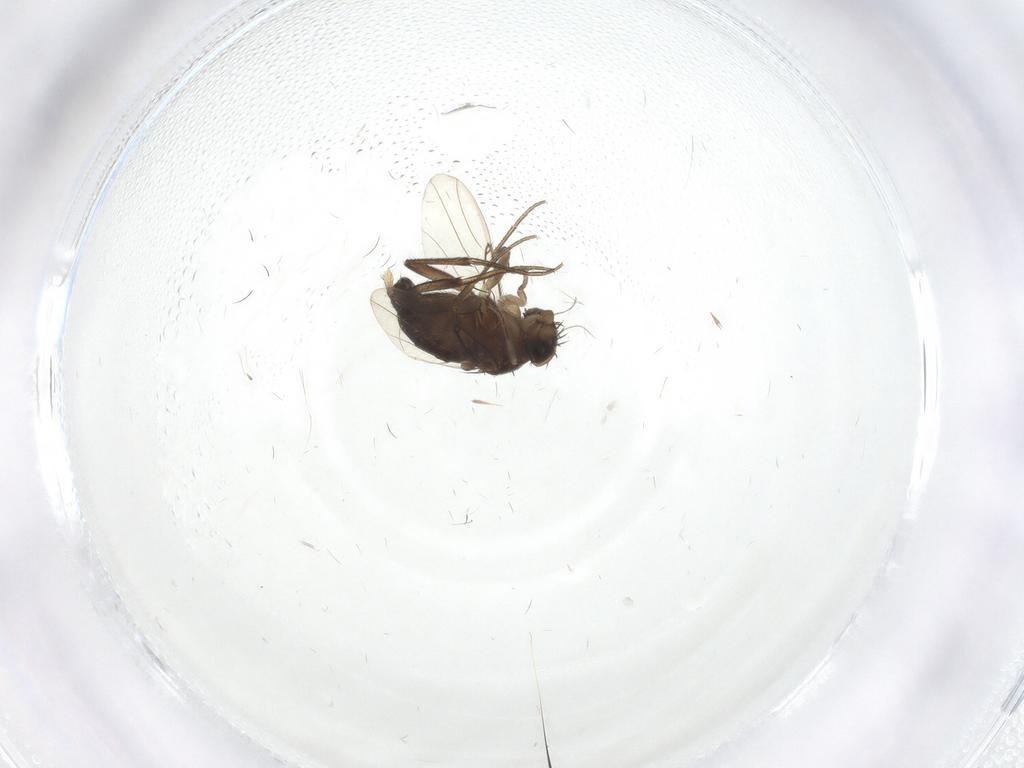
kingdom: Animalia
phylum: Arthropoda
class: Insecta
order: Diptera
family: Phoridae
